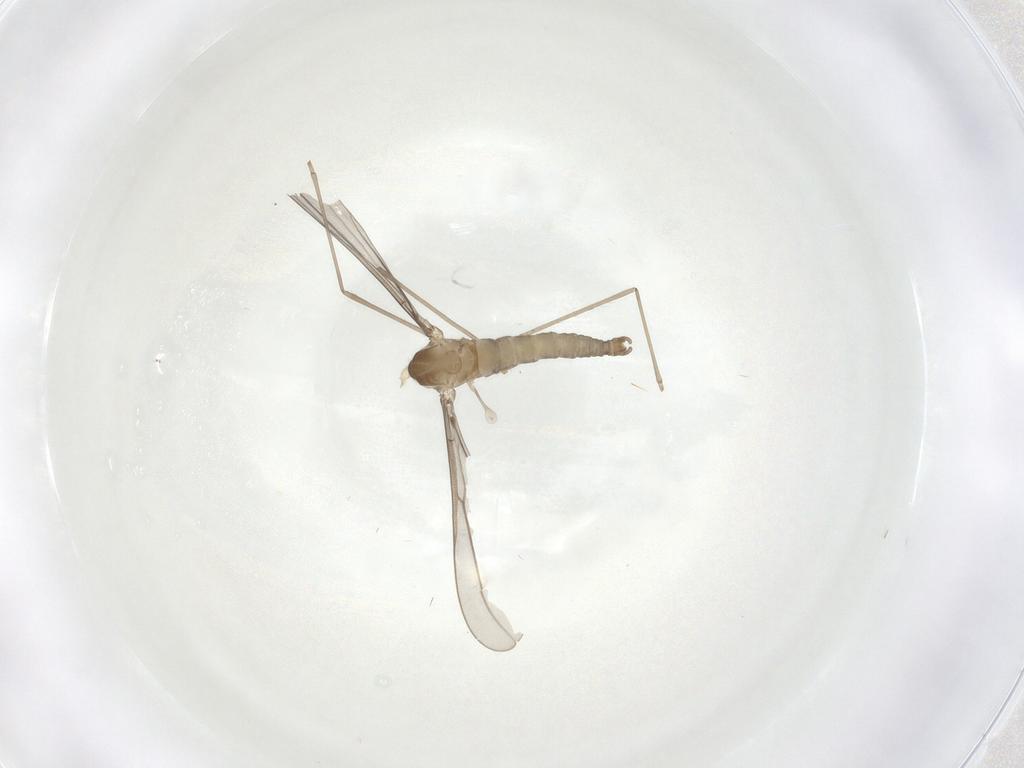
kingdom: Animalia
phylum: Arthropoda
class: Insecta
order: Diptera
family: Cecidomyiidae
